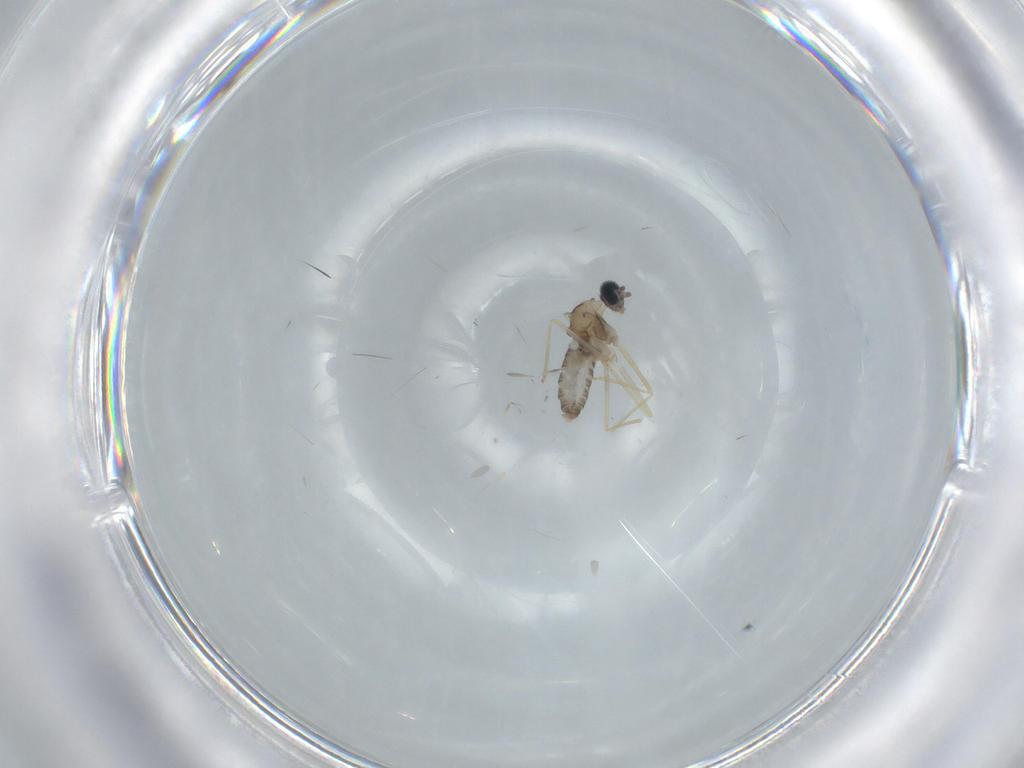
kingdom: Animalia
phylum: Arthropoda
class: Insecta
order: Diptera
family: Cecidomyiidae
